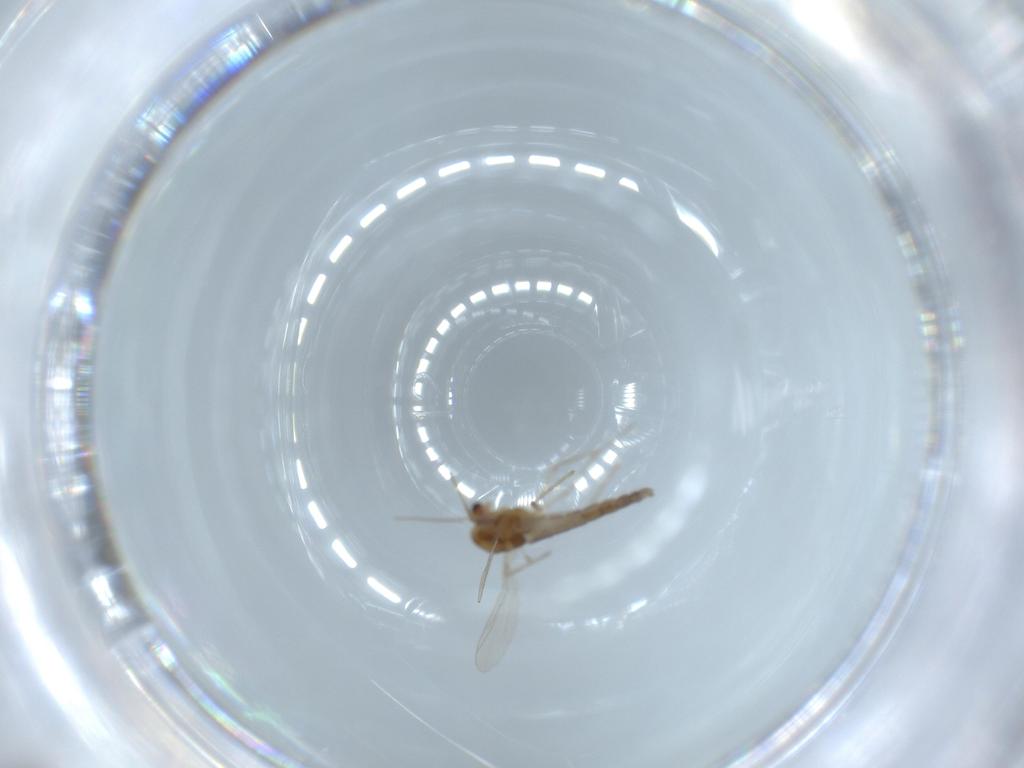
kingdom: Animalia
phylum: Arthropoda
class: Insecta
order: Diptera
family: Chironomidae
